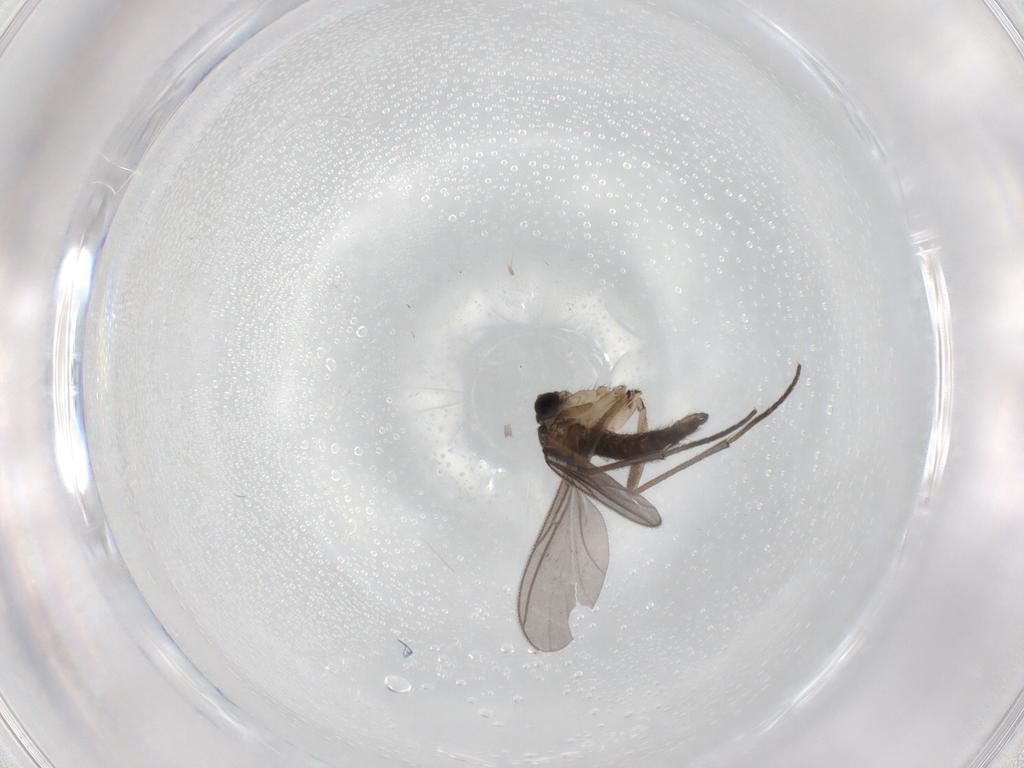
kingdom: Animalia
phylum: Arthropoda
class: Insecta
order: Diptera
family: Sciaridae
